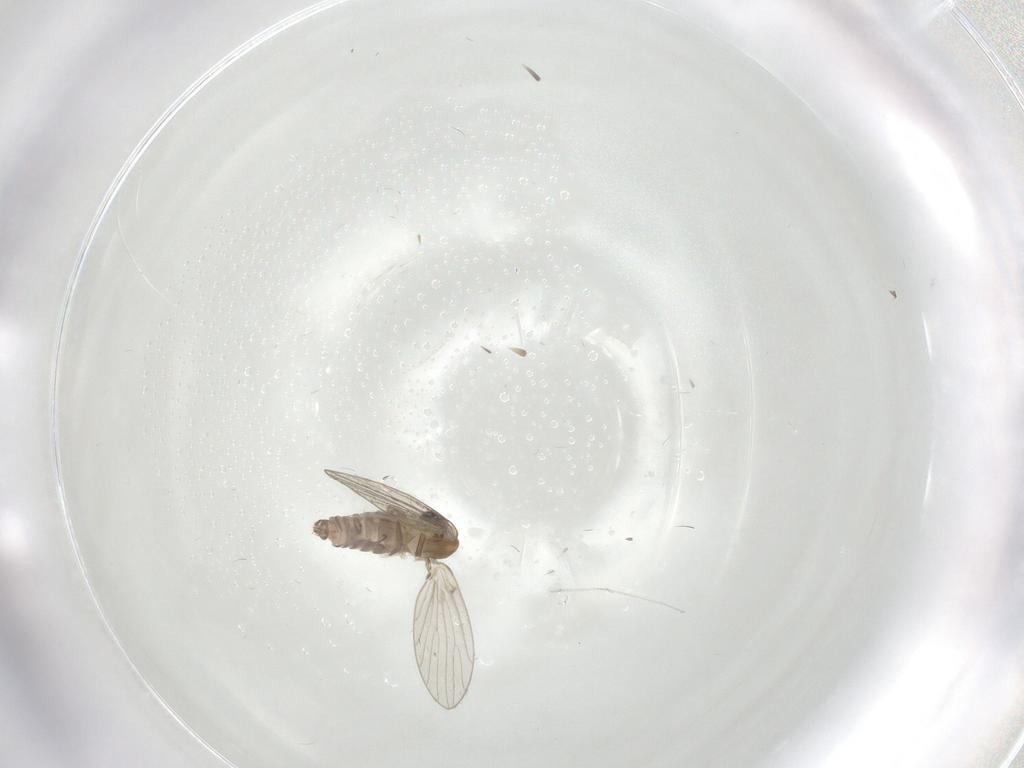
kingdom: Animalia
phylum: Arthropoda
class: Insecta
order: Diptera
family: Psychodidae
